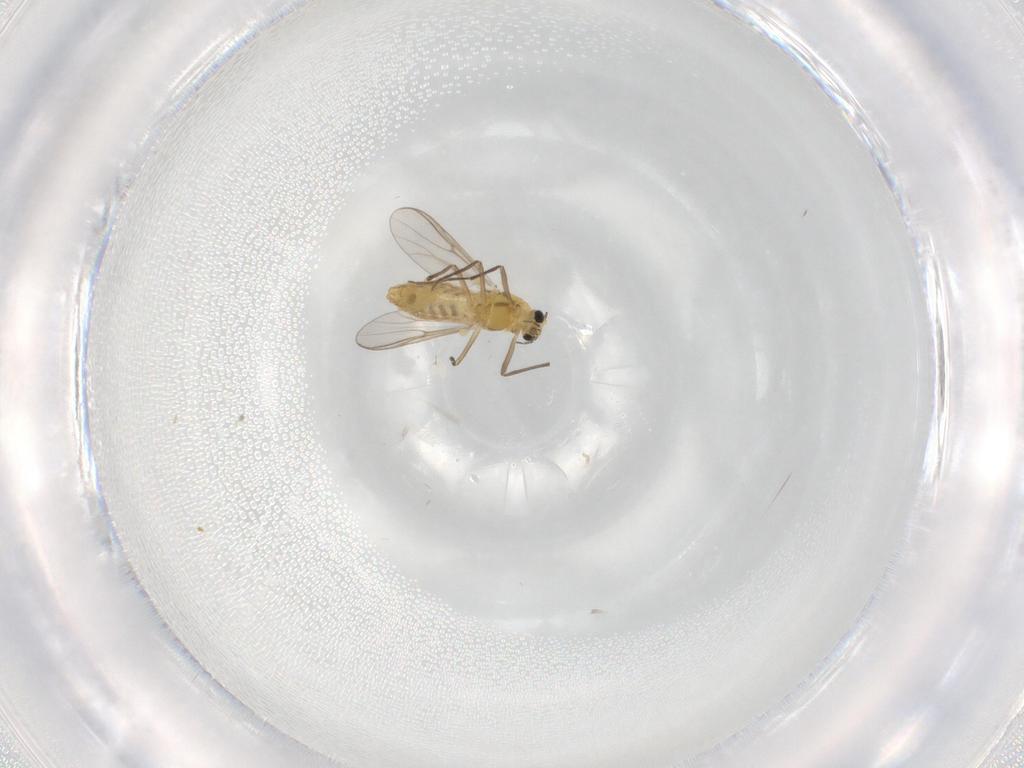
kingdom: Animalia
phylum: Arthropoda
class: Insecta
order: Diptera
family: Chironomidae
